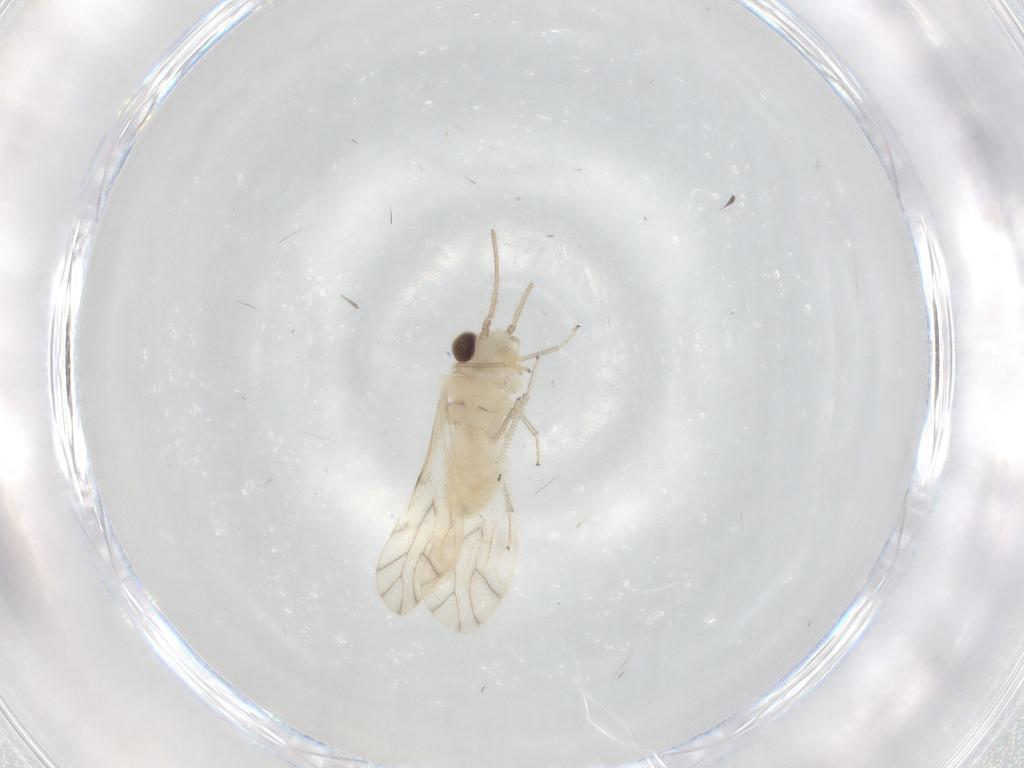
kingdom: Animalia
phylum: Arthropoda
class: Insecta
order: Psocodea
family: Caeciliusidae
